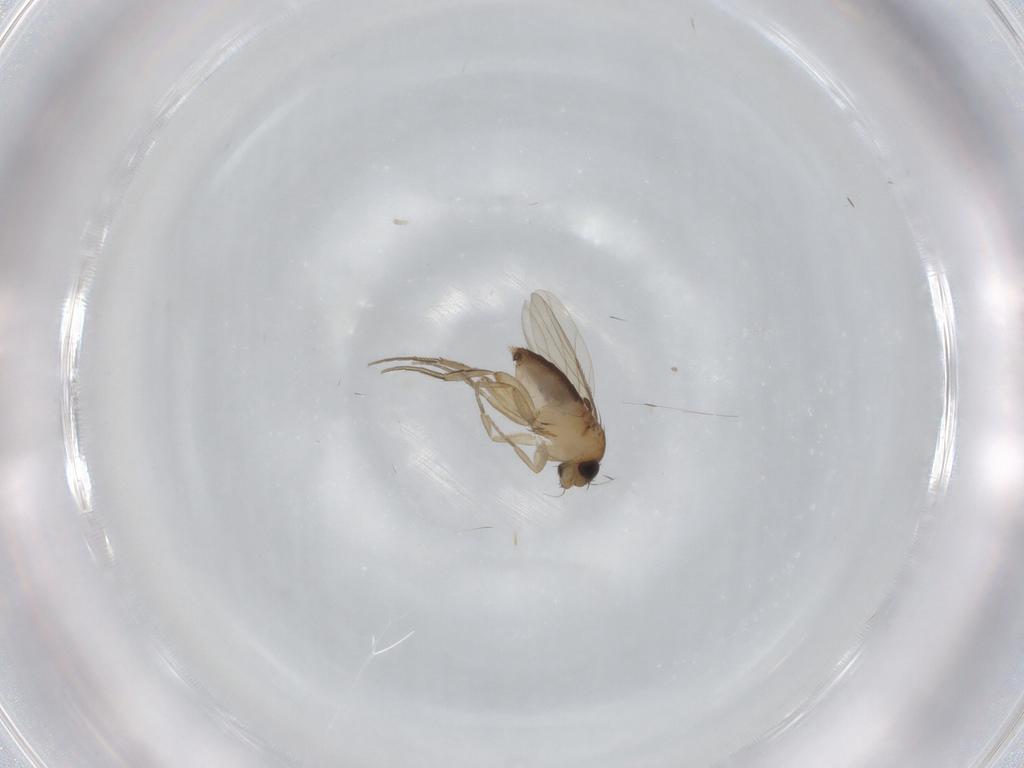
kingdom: Animalia
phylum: Arthropoda
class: Insecta
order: Diptera
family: Phoridae
